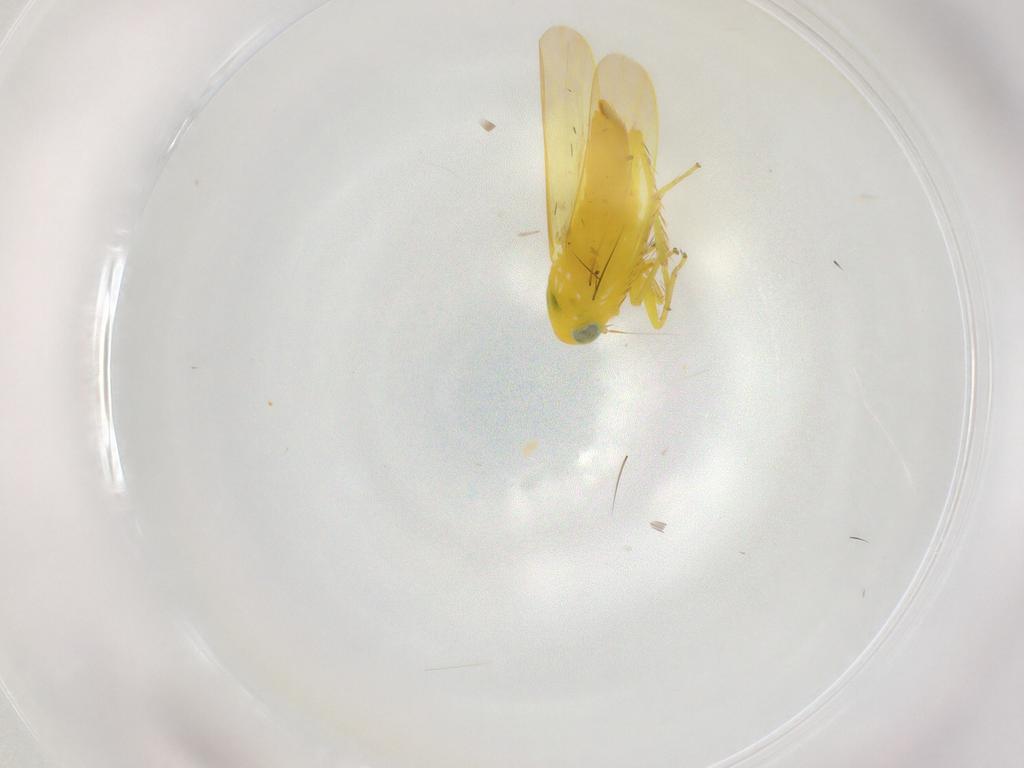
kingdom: Animalia
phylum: Arthropoda
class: Insecta
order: Hemiptera
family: Cicadellidae
